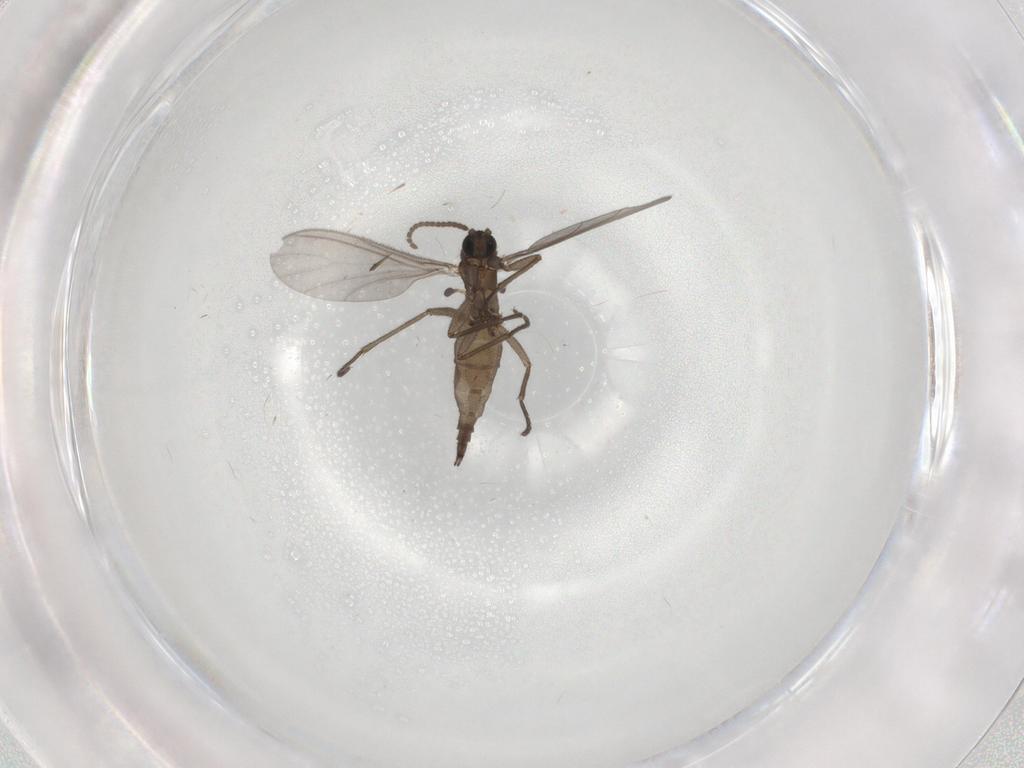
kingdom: Animalia
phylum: Arthropoda
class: Insecta
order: Diptera
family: Sciaridae
